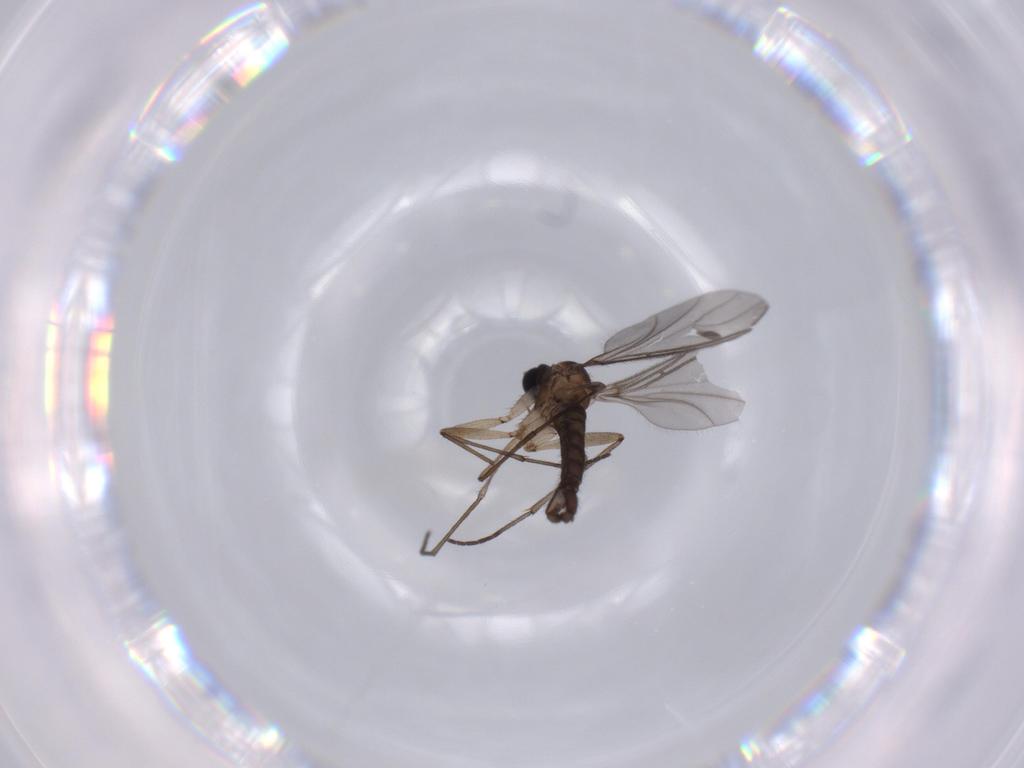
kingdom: Animalia
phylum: Arthropoda
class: Insecta
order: Diptera
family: Sciaridae
